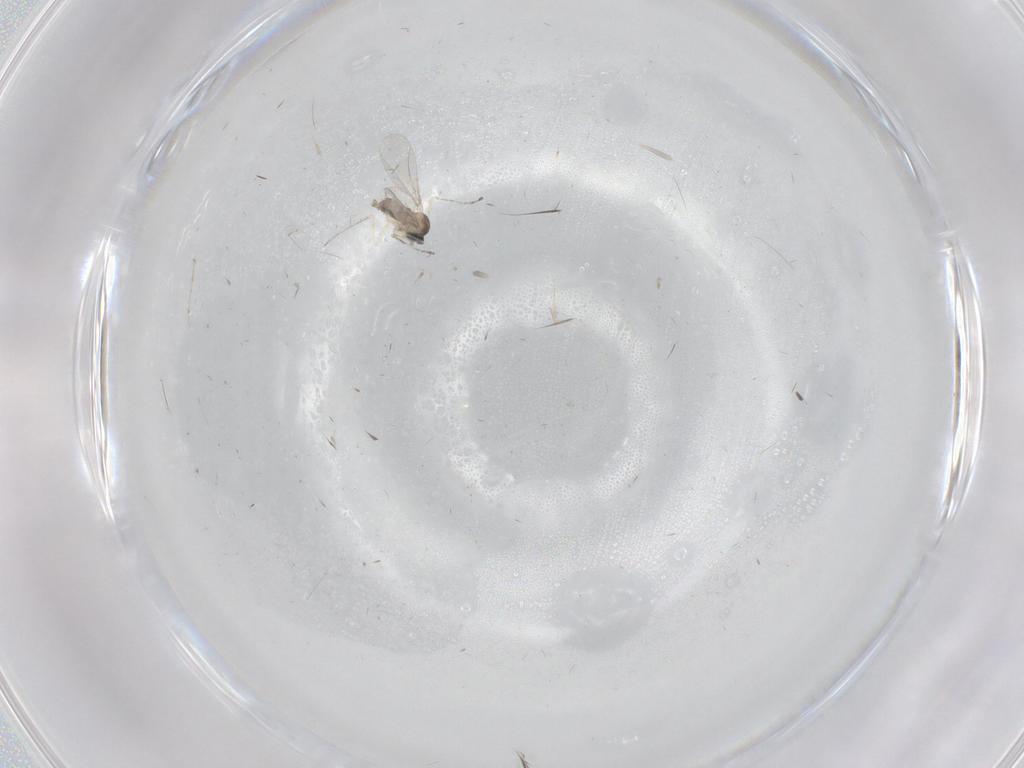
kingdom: Animalia
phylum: Arthropoda
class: Insecta
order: Diptera
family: Cecidomyiidae
